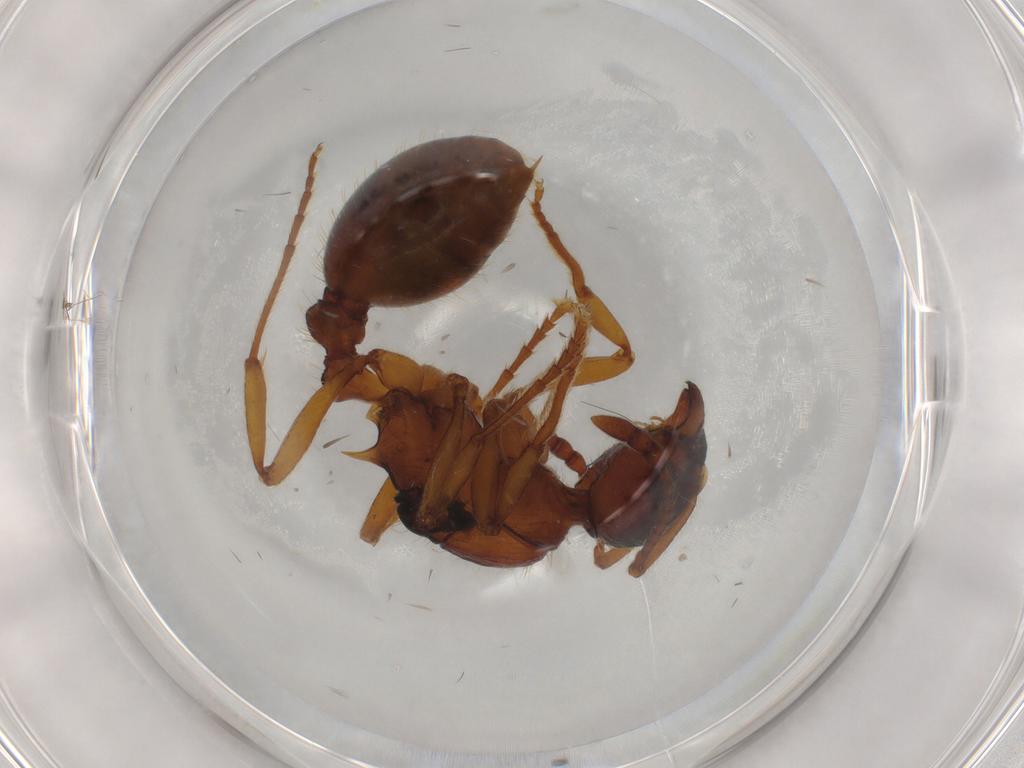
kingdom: Animalia
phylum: Arthropoda
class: Insecta
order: Hymenoptera
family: Formicidae
